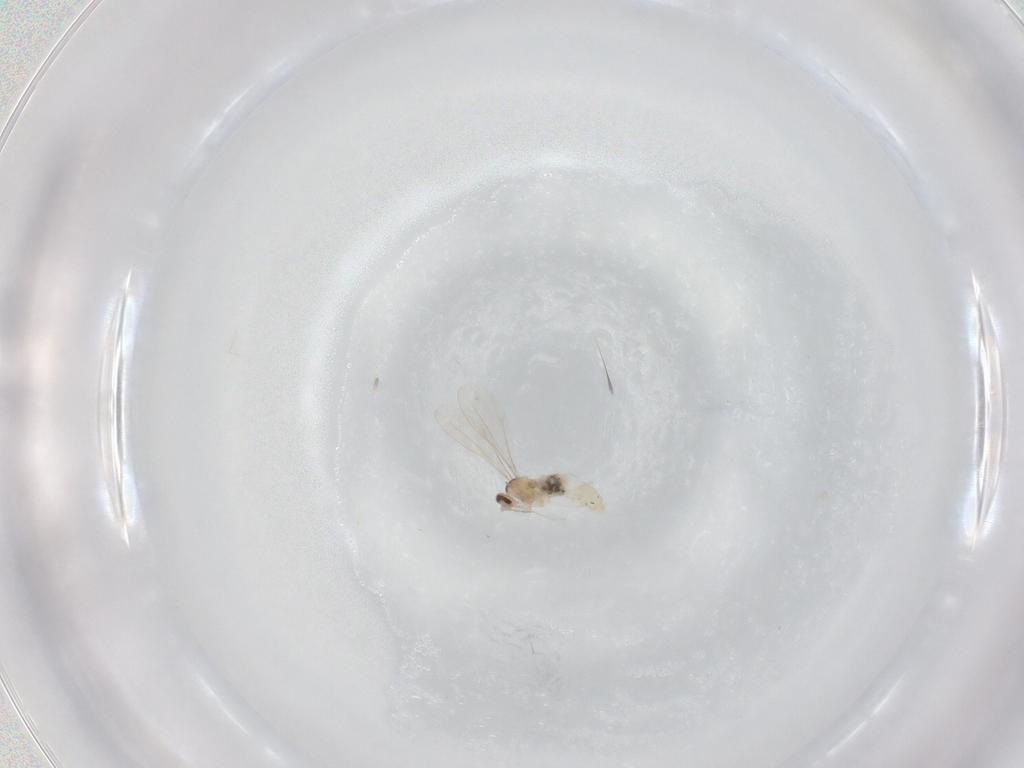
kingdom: Animalia
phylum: Arthropoda
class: Insecta
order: Diptera
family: Cecidomyiidae
